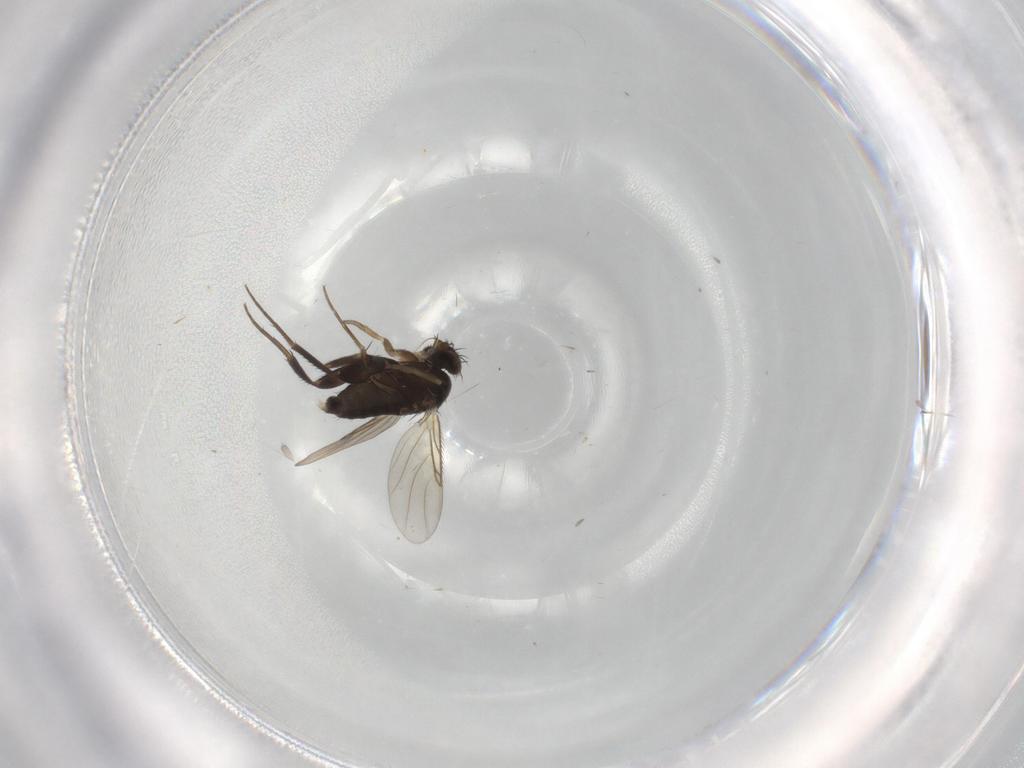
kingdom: Animalia
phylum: Arthropoda
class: Insecta
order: Diptera
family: Phoridae
